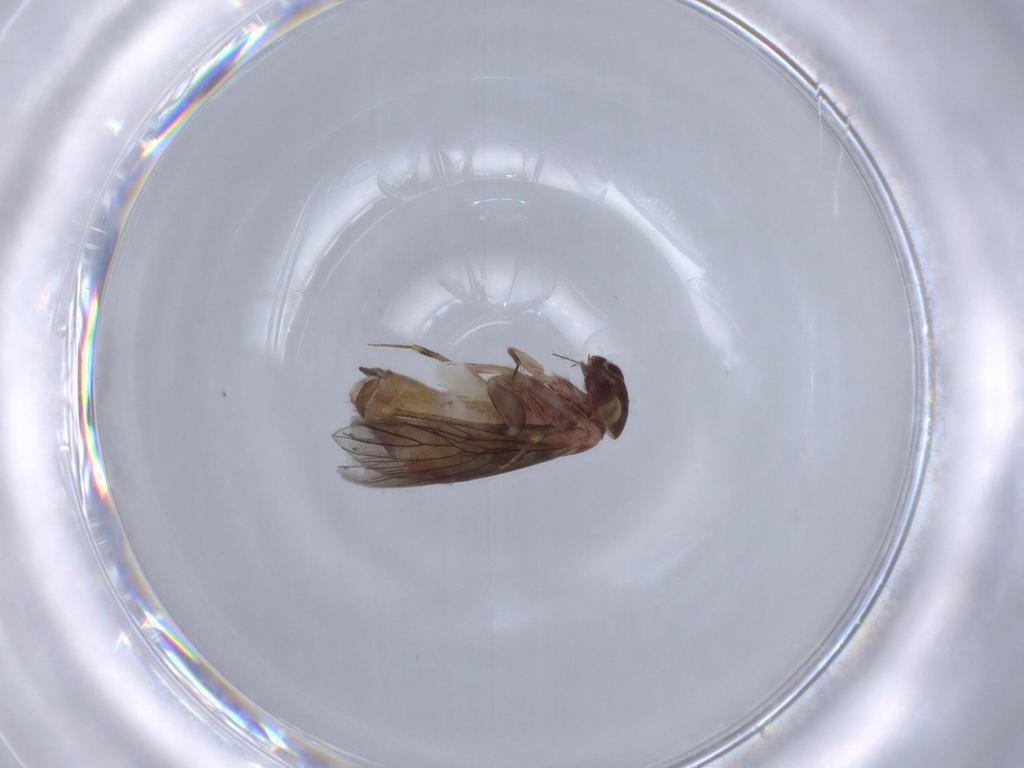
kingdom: Animalia
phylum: Arthropoda
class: Insecta
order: Psocodea
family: Lepidopsocidae
